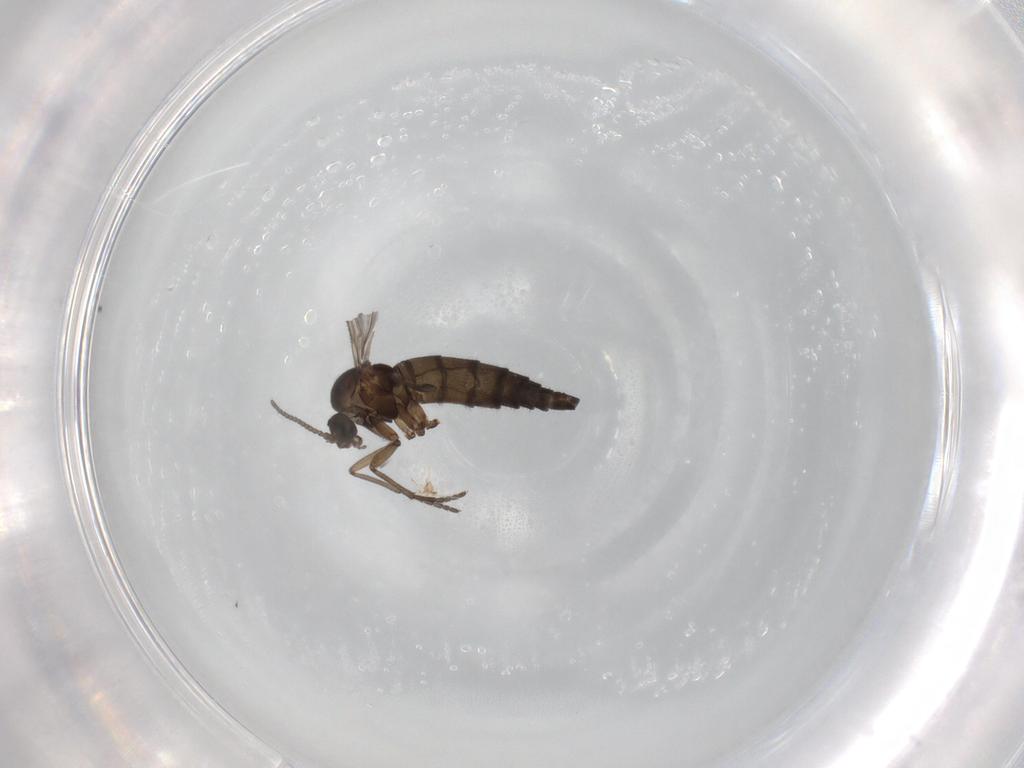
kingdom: Animalia
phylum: Arthropoda
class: Insecta
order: Diptera
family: Sciaridae
